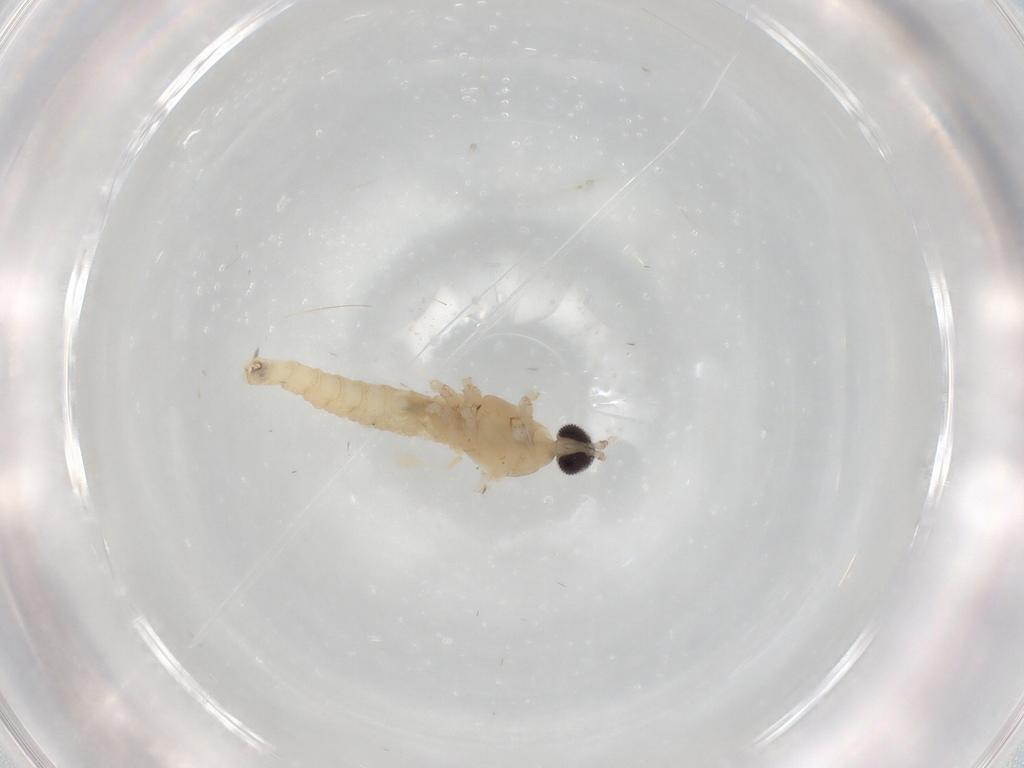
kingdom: Animalia
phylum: Arthropoda
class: Insecta
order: Diptera
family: Cecidomyiidae
